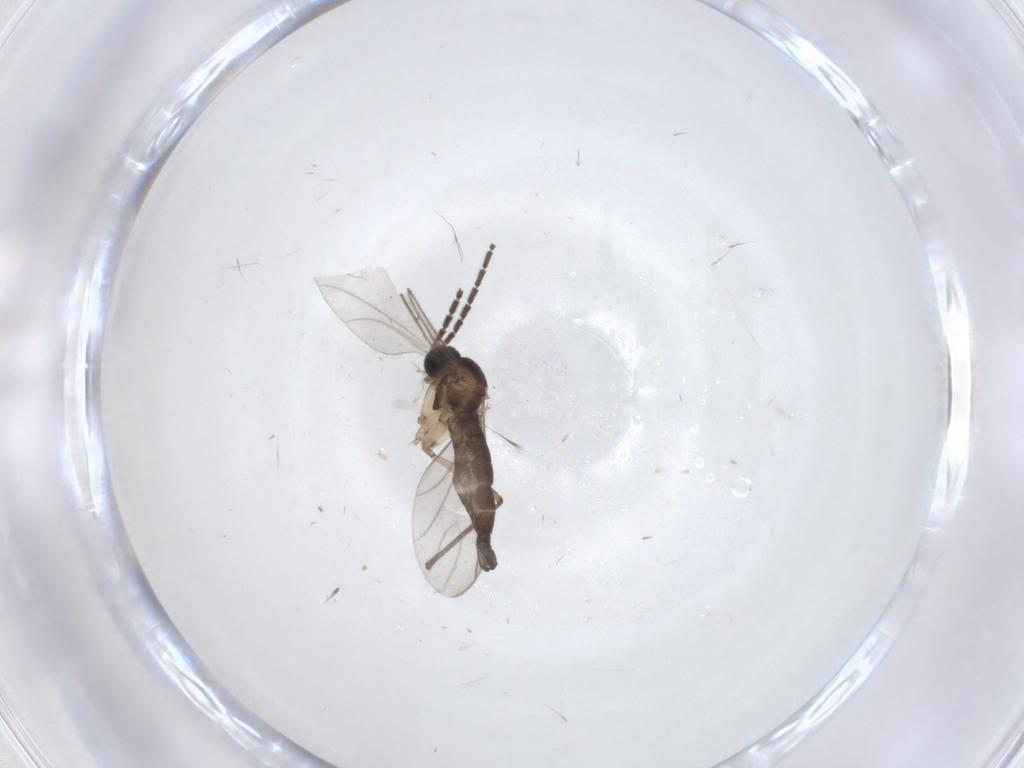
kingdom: Animalia
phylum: Arthropoda
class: Insecta
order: Diptera
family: Sciaridae
